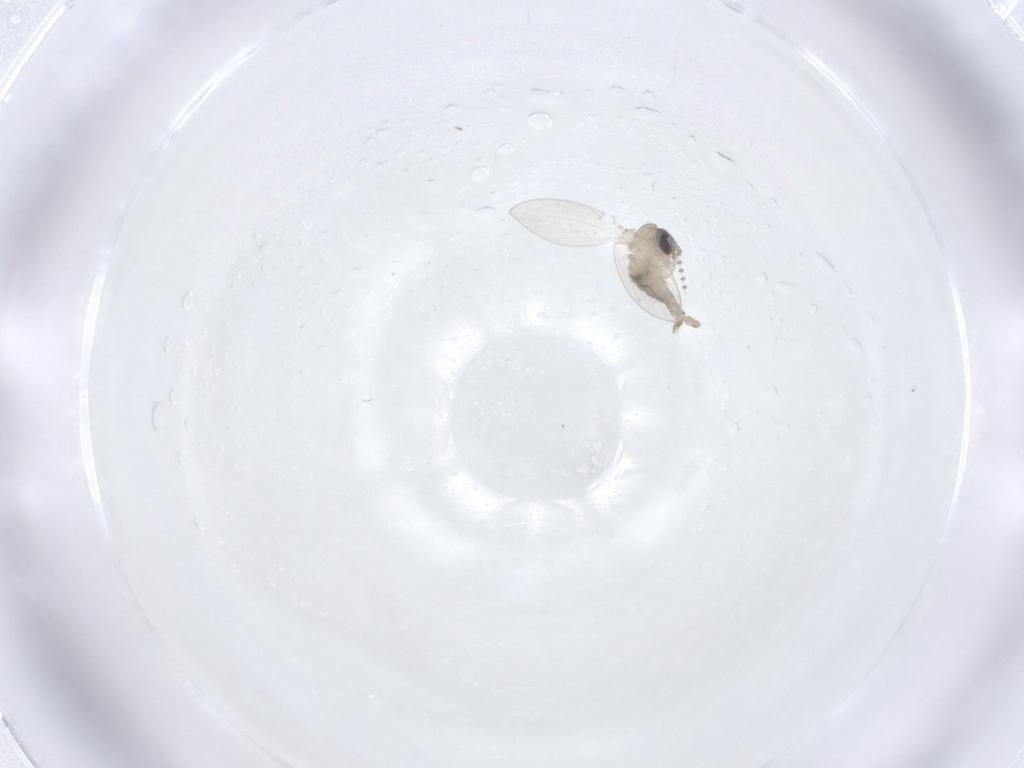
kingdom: Animalia
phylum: Arthropoda
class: Insecta
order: Diptera
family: Psychodidae
